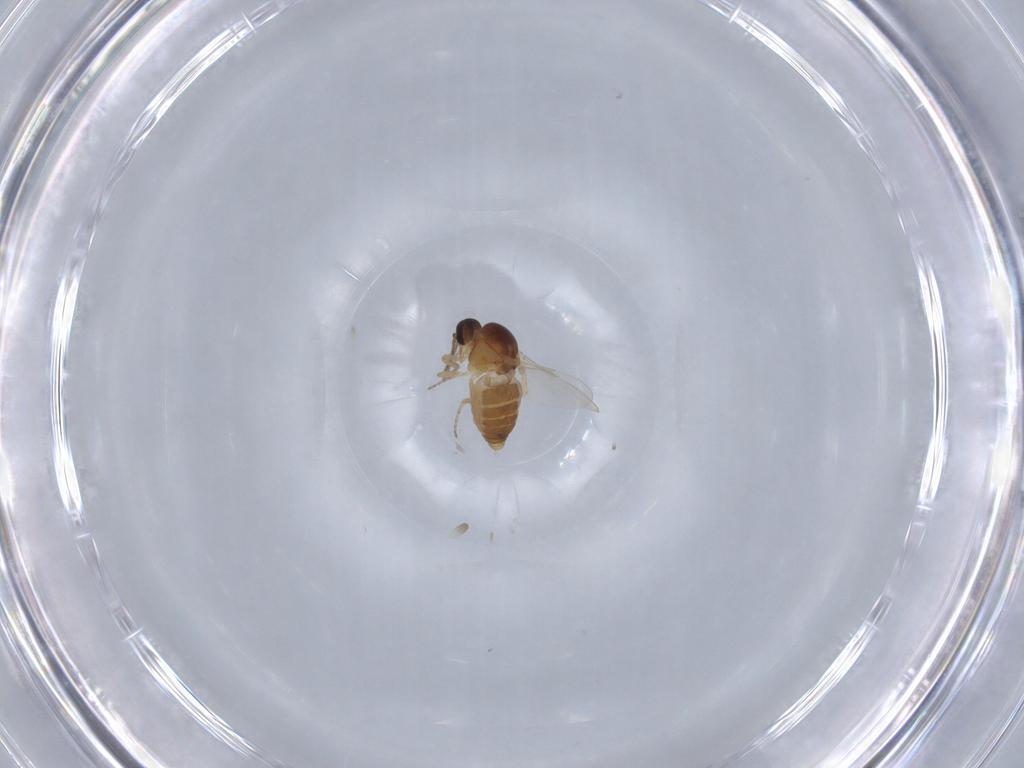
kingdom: Animalia
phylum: Arthropoda
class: Insecta
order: Diptera
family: Ceratopogonidae
